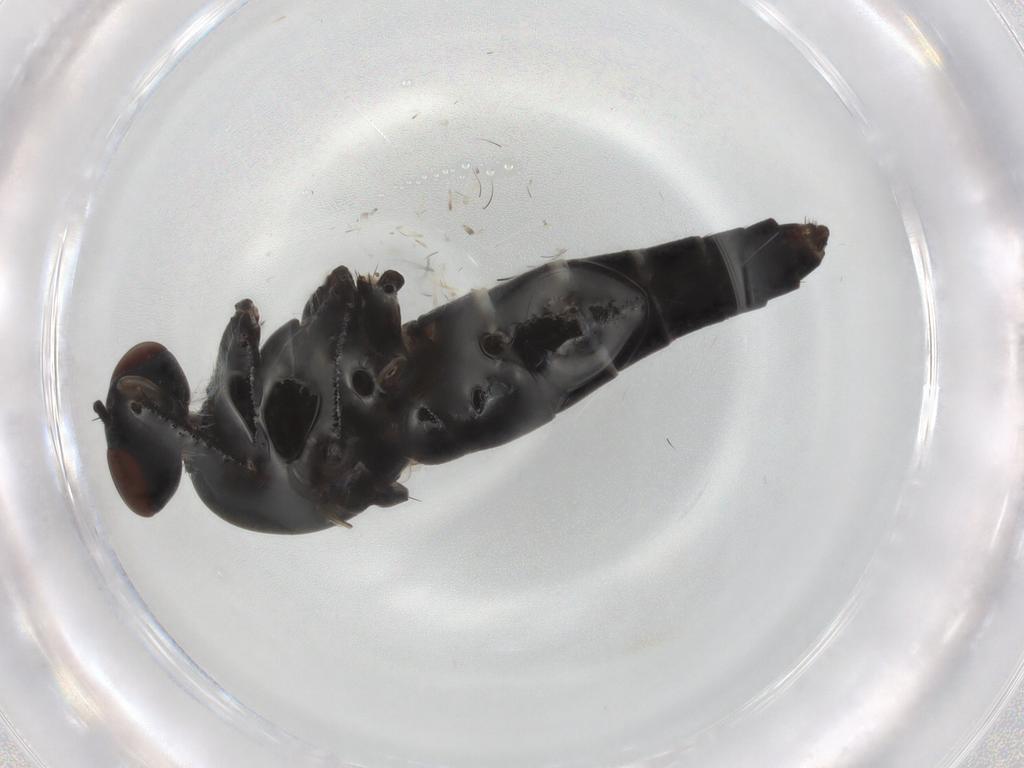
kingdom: Animalia
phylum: Arthropoda
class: Insecta
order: Diptera
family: Therevidae
